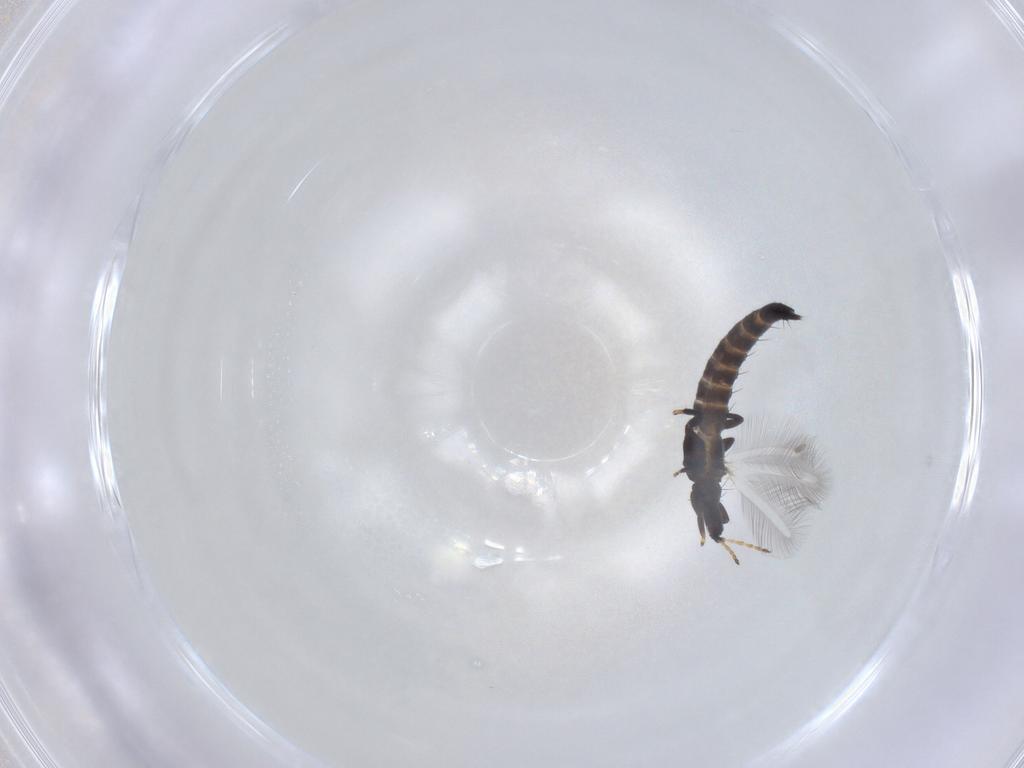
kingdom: Animalia
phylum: Arthropoda
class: Insecta
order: Thysanoptera
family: Phlaeothripidae
